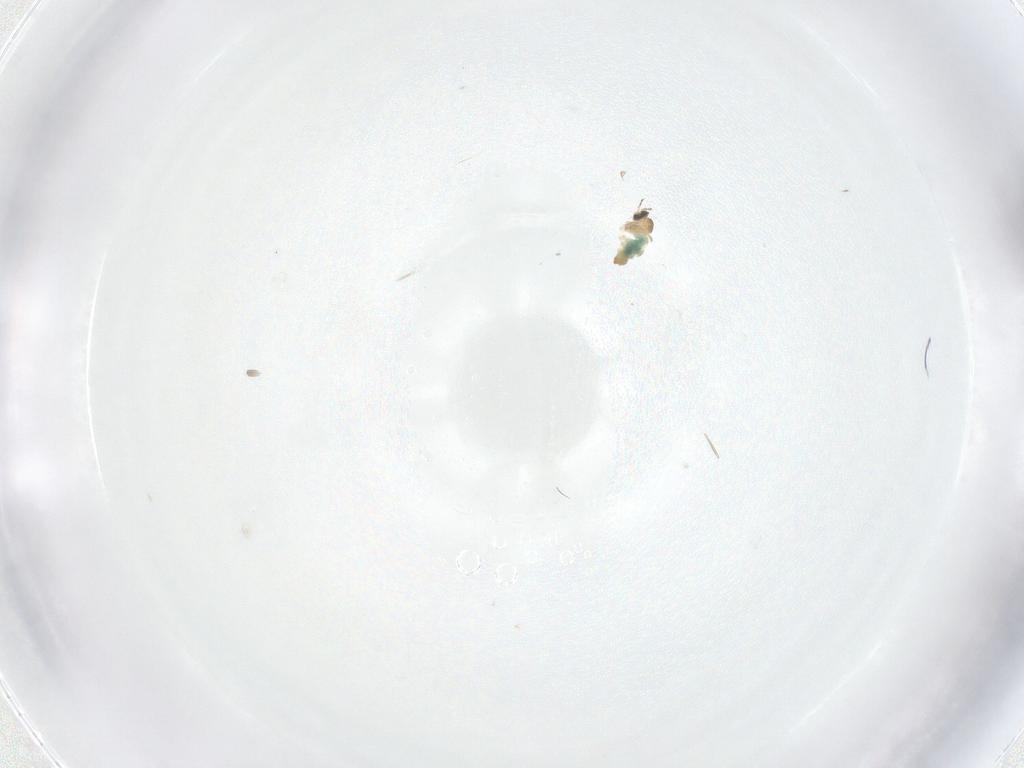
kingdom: Animalia
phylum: Arthropoda
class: Insecta
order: Diptera
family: Cecidomyiidae
